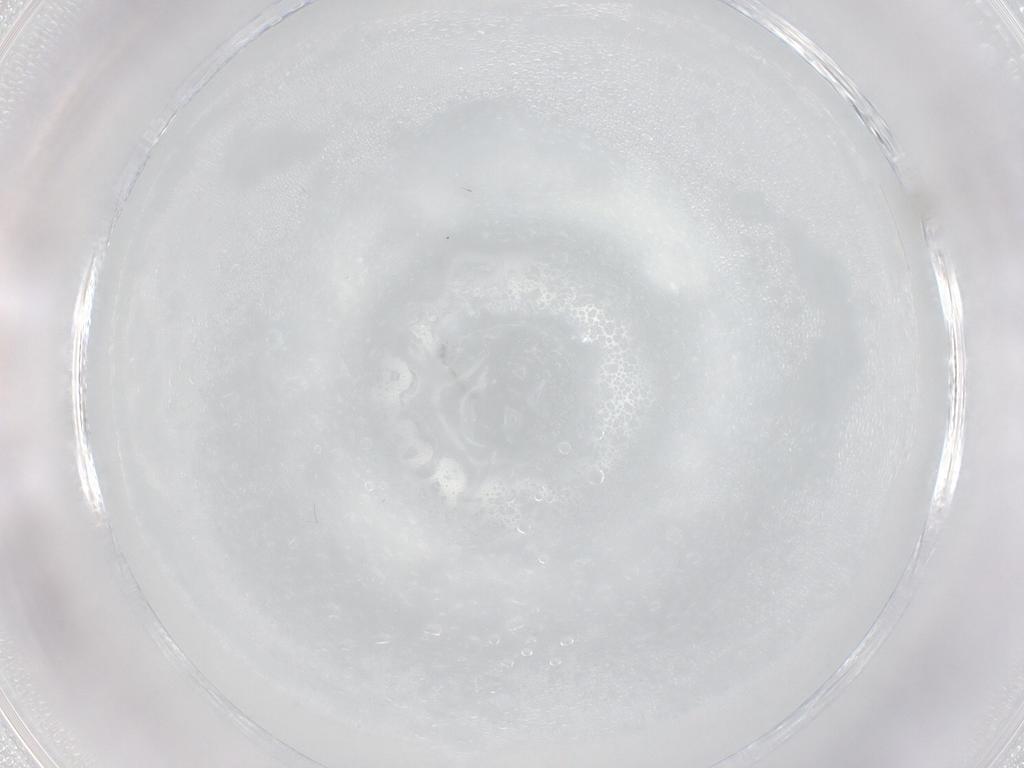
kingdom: Animalia
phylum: Arthropoda
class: Insecta
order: Diptera
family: Cecidomyiidae
